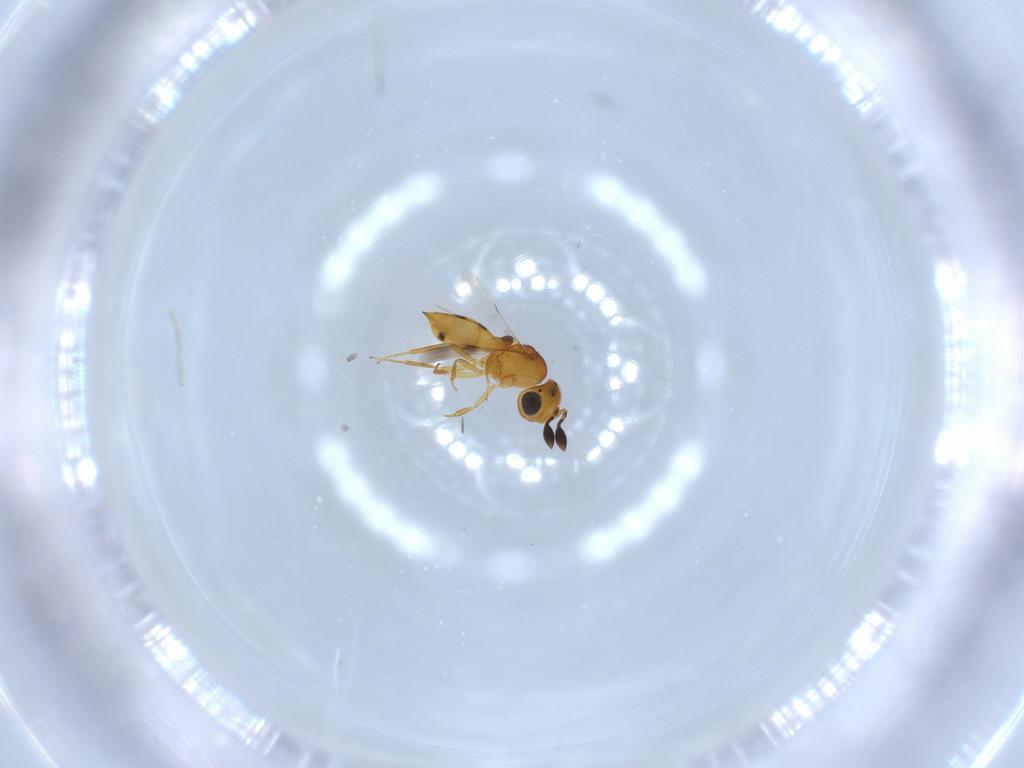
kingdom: Animalia
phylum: Arthropoda
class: Insecta
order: Hymenoptera
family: Scelionidae
